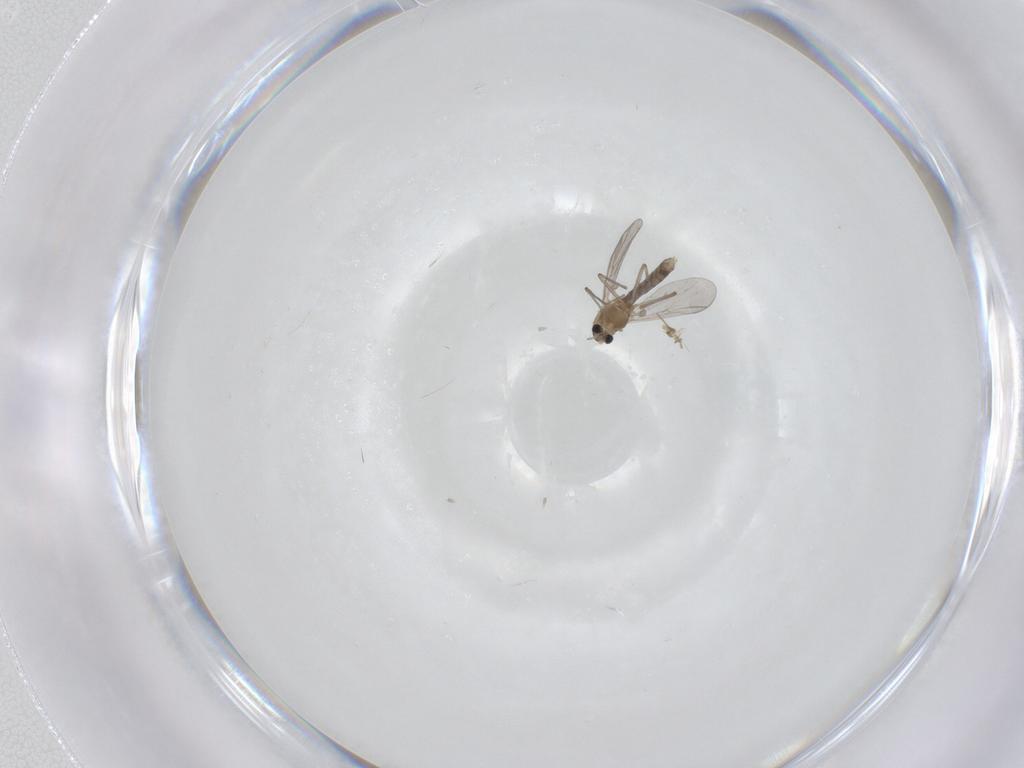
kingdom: Animalia
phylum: Arthropoda
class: Insecta
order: Diptera
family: Chironomidae
